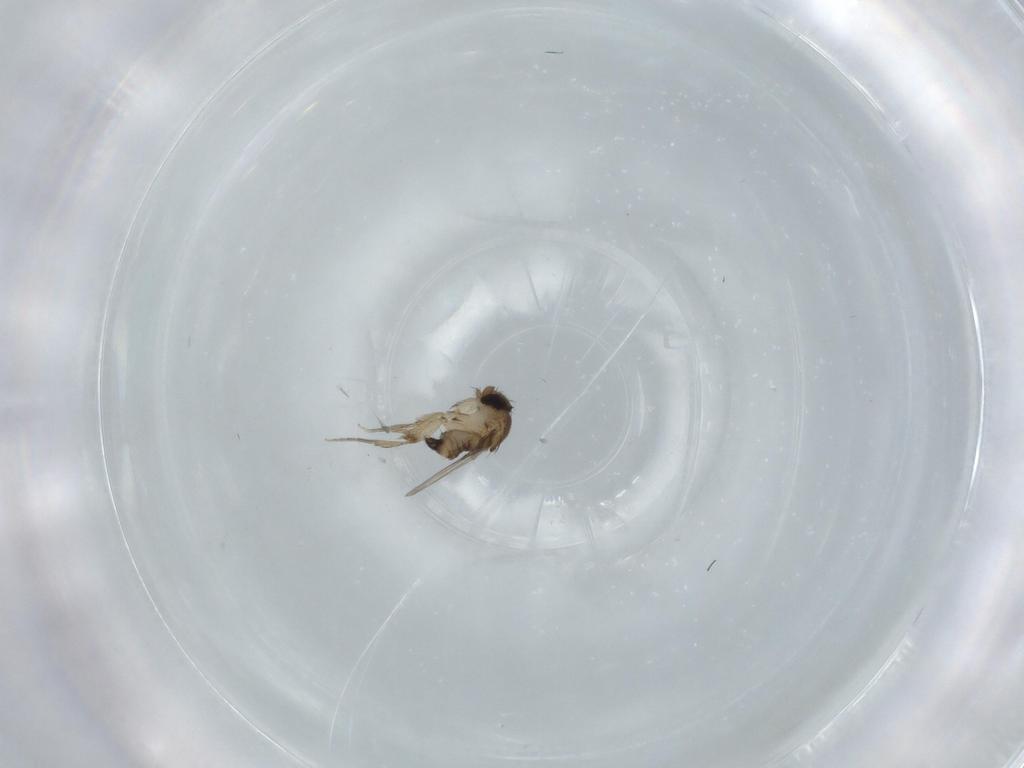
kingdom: Animalia
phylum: Arthropoda
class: Insecta
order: Diptera
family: Phoridae
